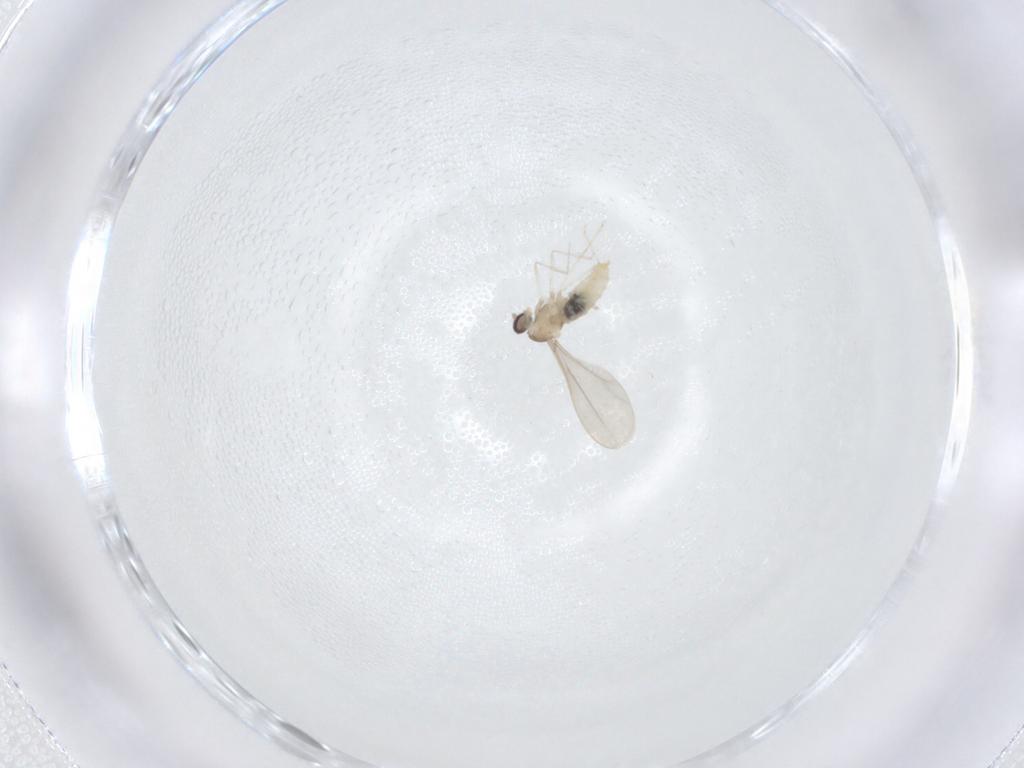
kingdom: Animalia
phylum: Arthropoda
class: Insecta
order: Diptera
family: Cecidomyiidae
